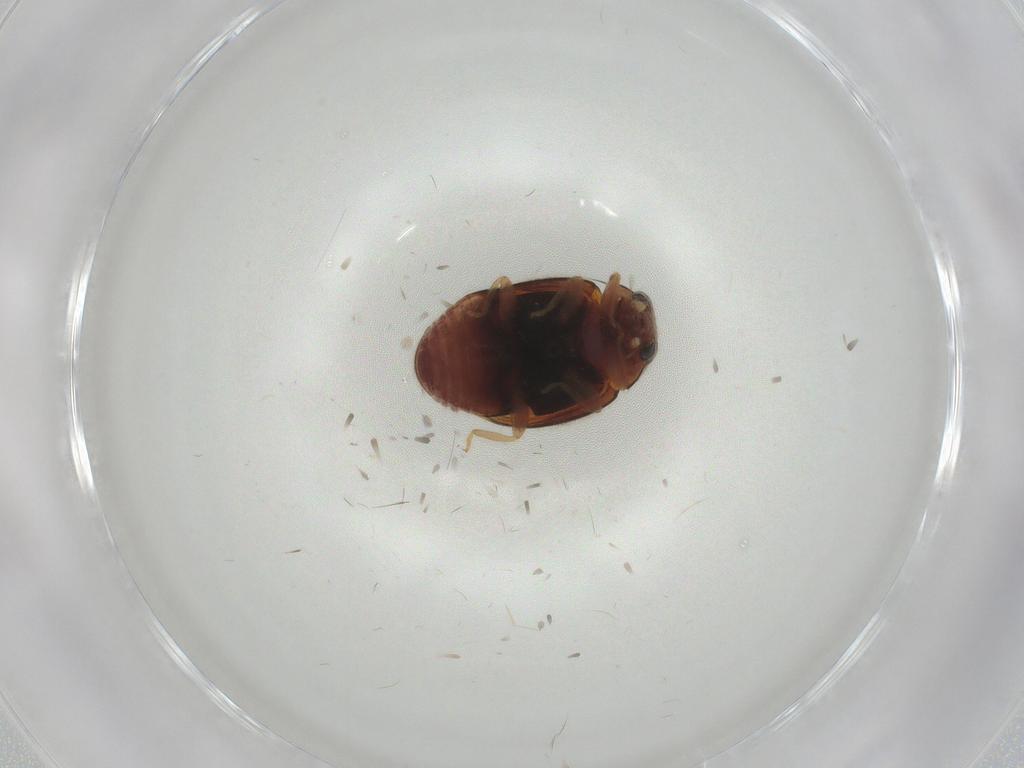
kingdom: Animalia
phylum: Arthropoda
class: Insecta
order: Coleoptera
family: Coccinellidae
